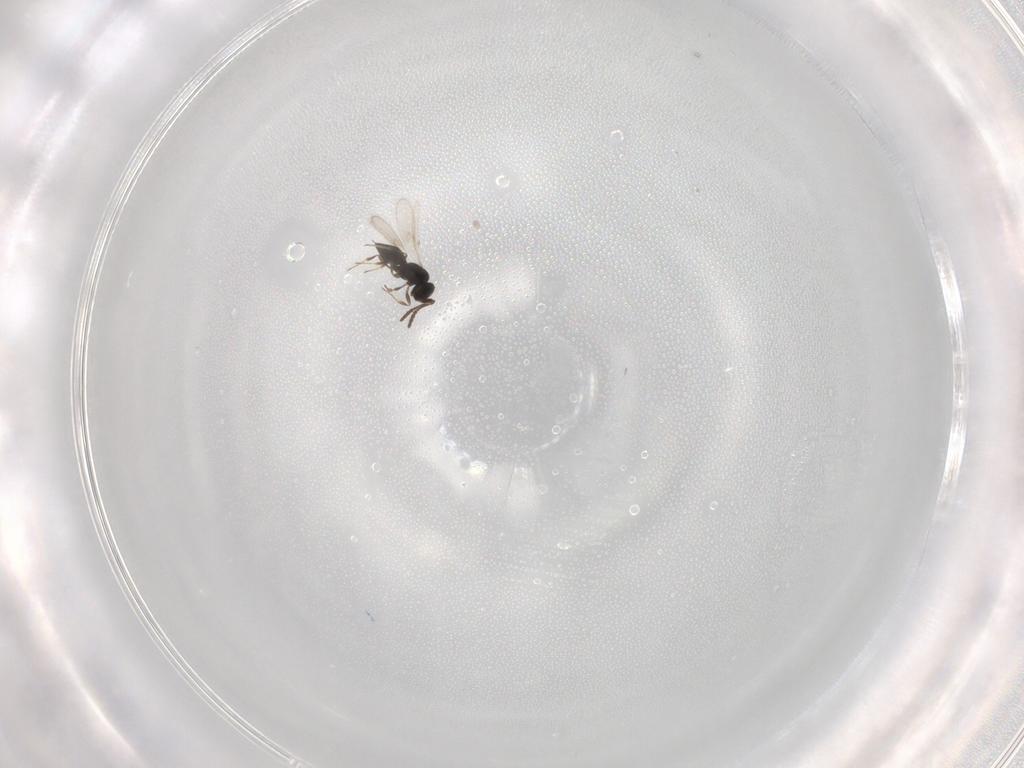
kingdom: Animalia
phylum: Arthropoda
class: Insecta
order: Hymenoptera
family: Scelionidae
